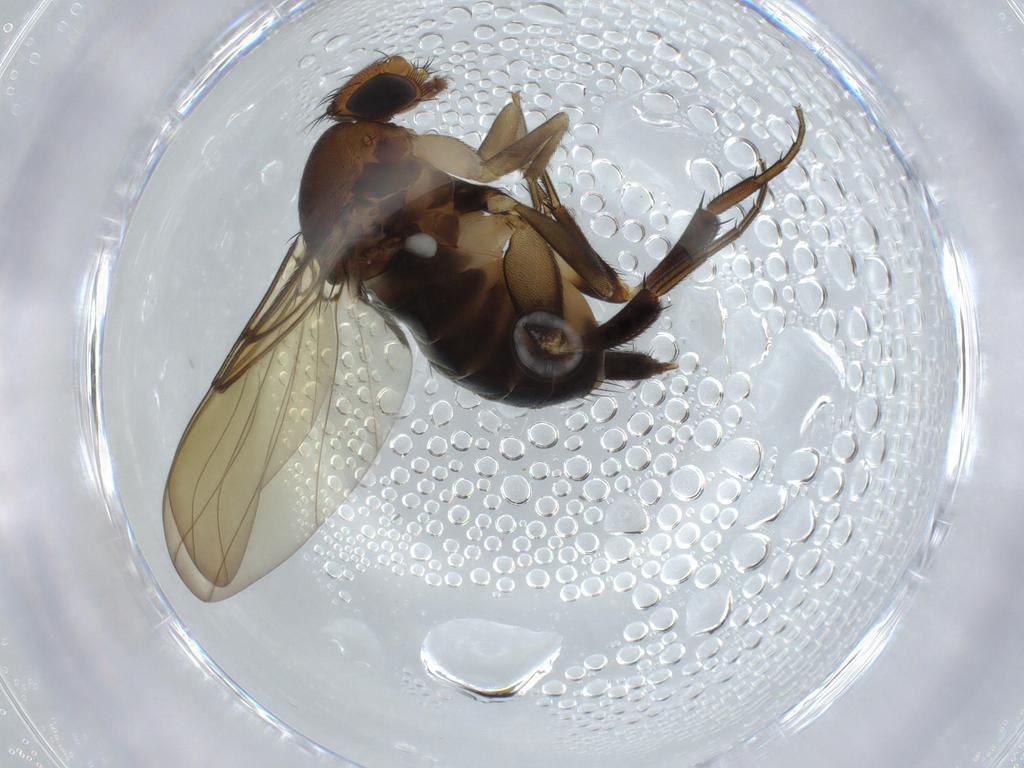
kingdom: Animalia
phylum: Arthropoda
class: Insecta
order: Diptera
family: Phoridae
